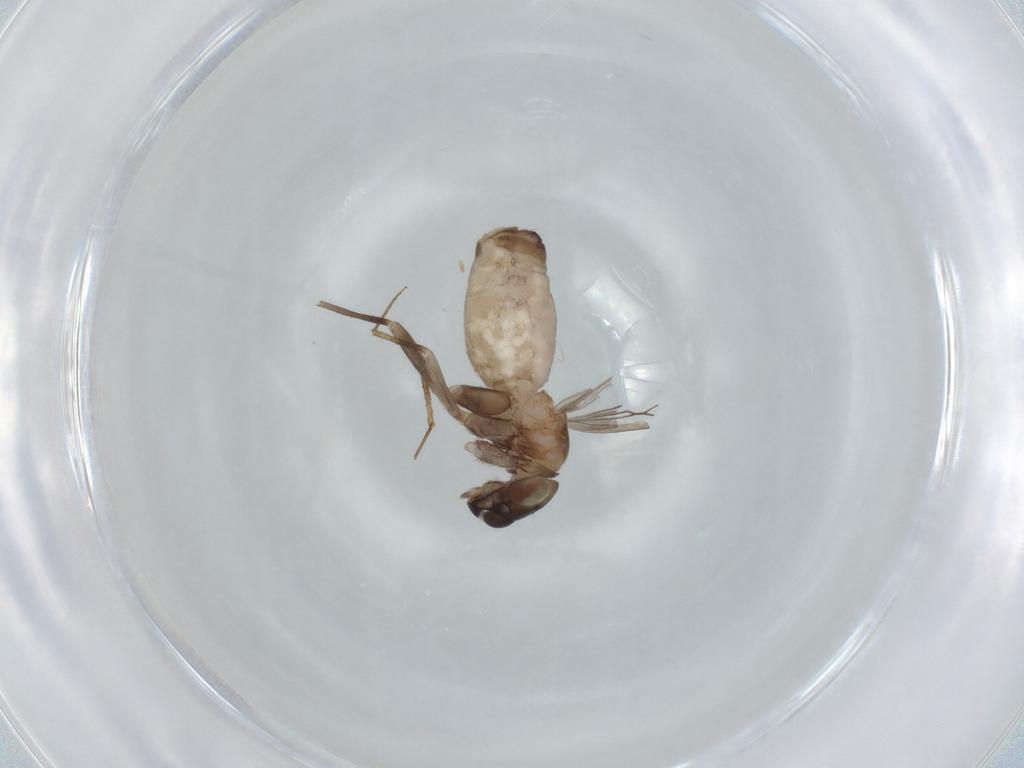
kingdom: Animalia
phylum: Arthropoda
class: Insecta
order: Psocodea
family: Lepidopsocidae
